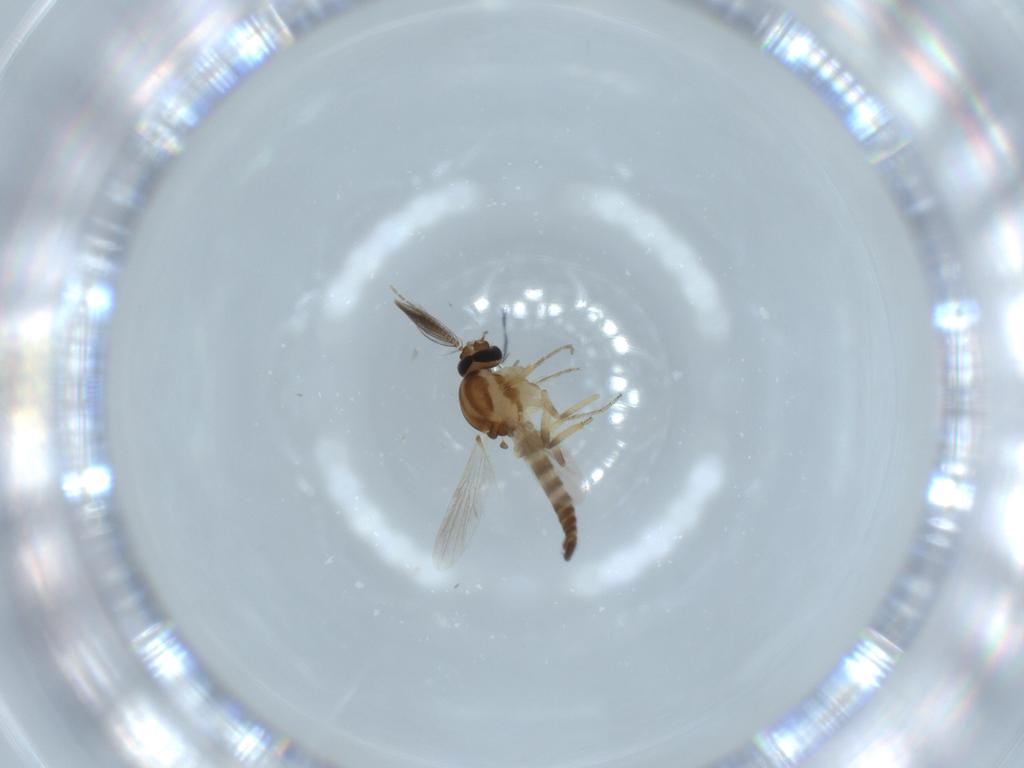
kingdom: Animalia
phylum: Arthropoda
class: Insecta
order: Diptera
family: Ceratopogonidae
